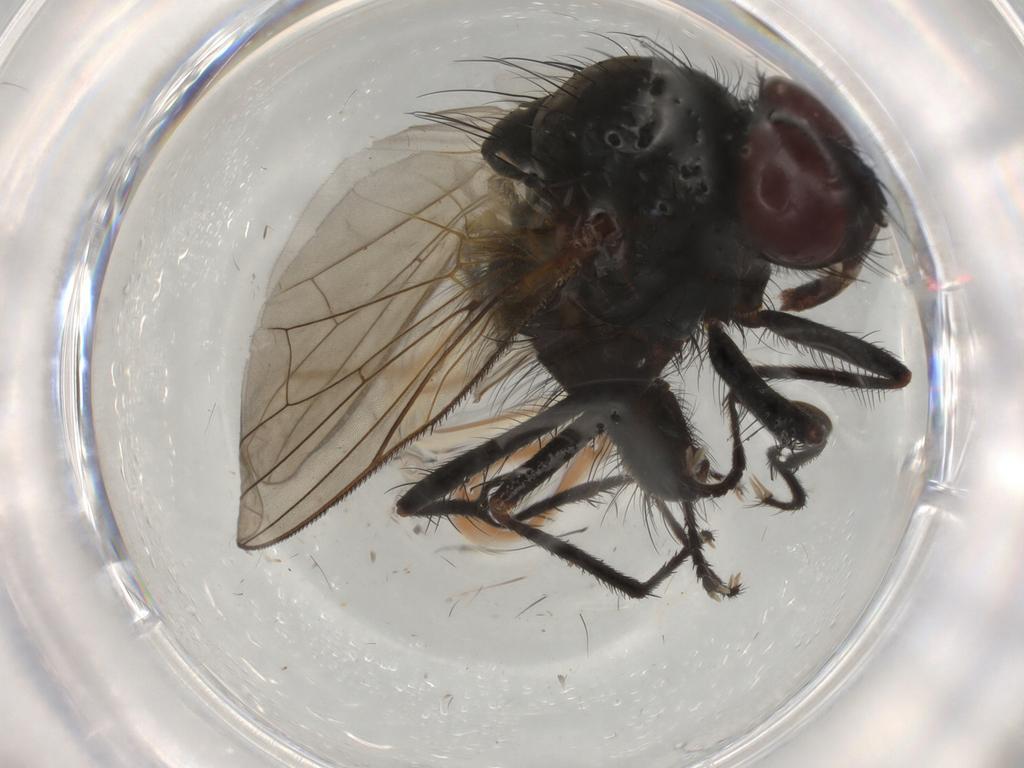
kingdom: Animalia
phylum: Arthropoda
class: Insecta
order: Diptera
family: Anthomyiidae
